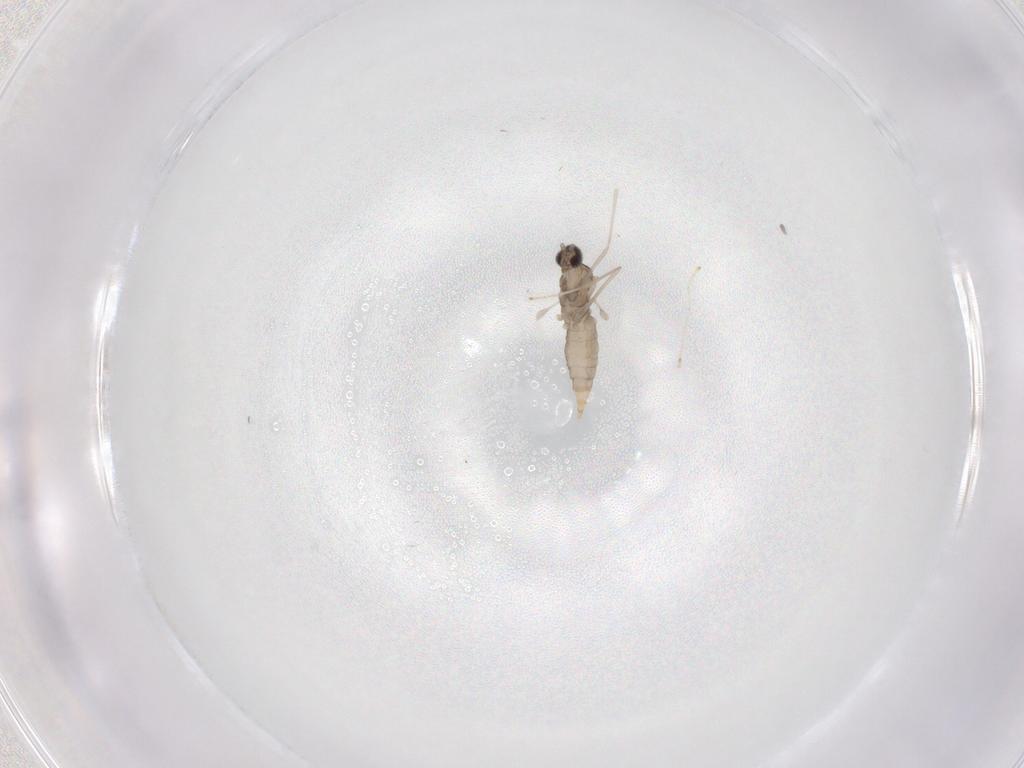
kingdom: Animalia
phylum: Arthropoda
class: Insecta
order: Diptera
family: Cecidomyiidae
